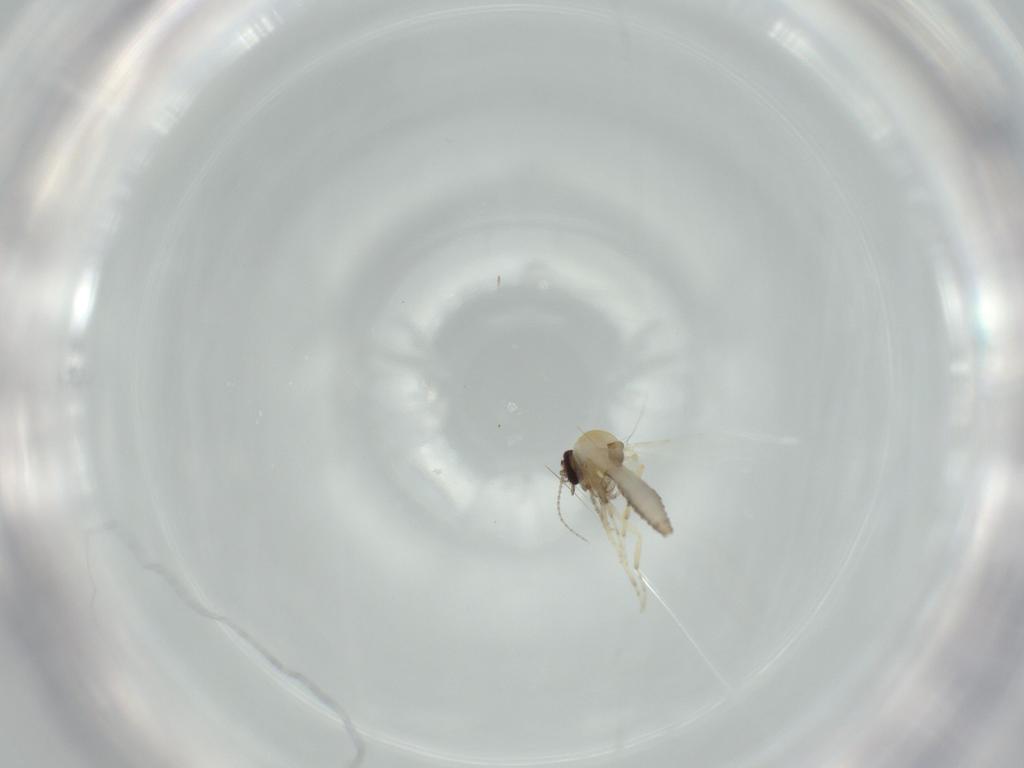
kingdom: Animalia
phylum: Arthropoda
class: Insecta
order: Diptera
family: Ceratopogonidae
